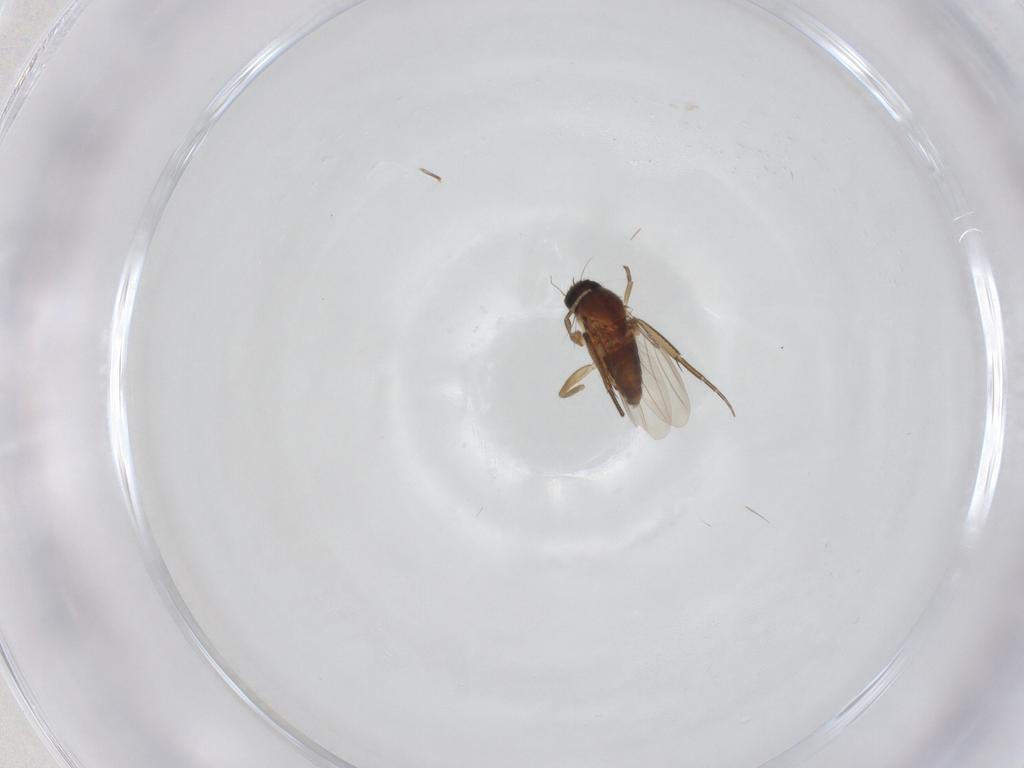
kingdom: Animalia
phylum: Arthropoda
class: Insecta
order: Diptera
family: Phoridae
